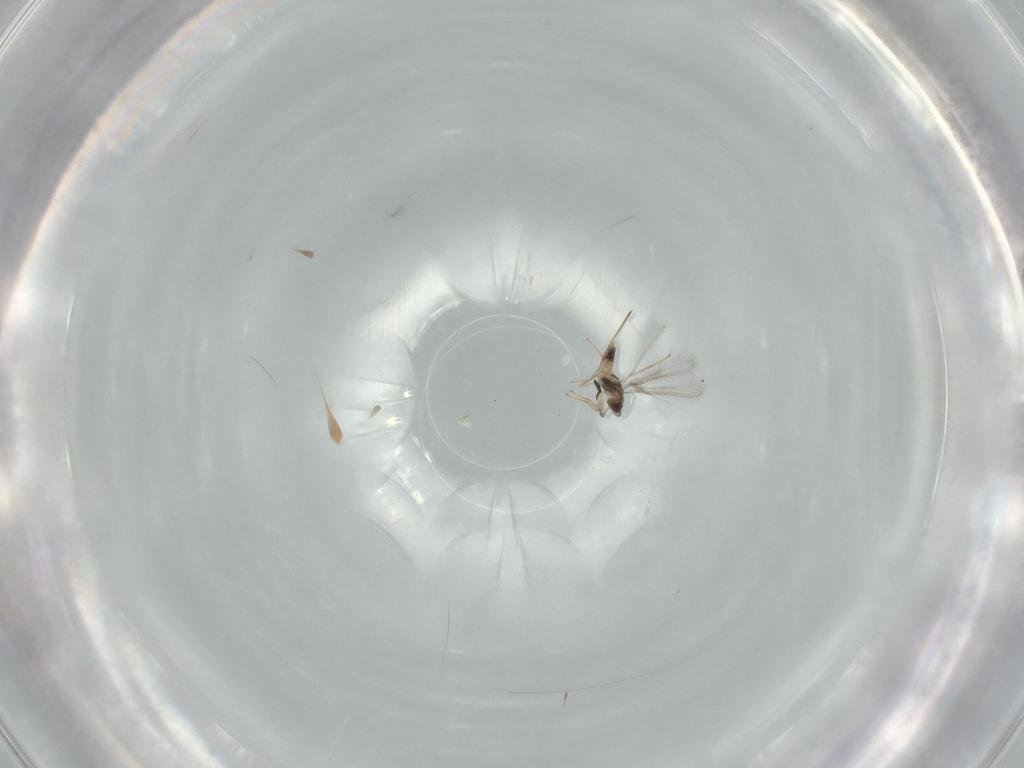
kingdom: Animalia
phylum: Arthropoda
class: Insecta
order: Hymenoptera
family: Mymaridae
